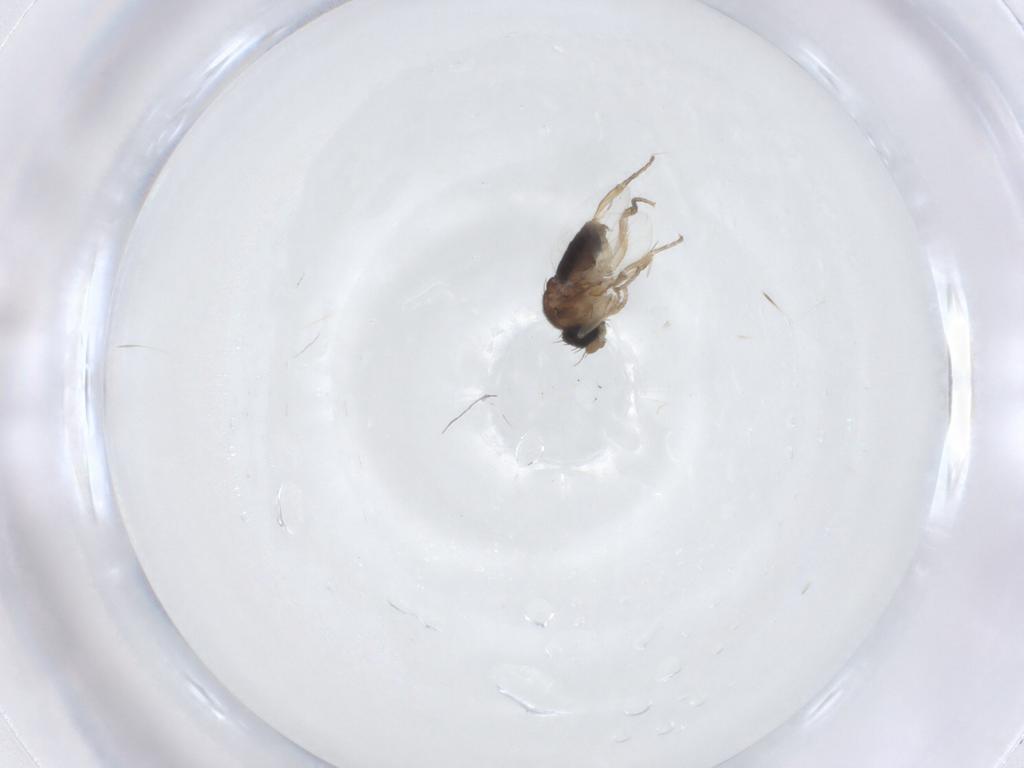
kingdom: Animalia
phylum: Arthropoda
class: Insecta
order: Diptera
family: Phoridae
